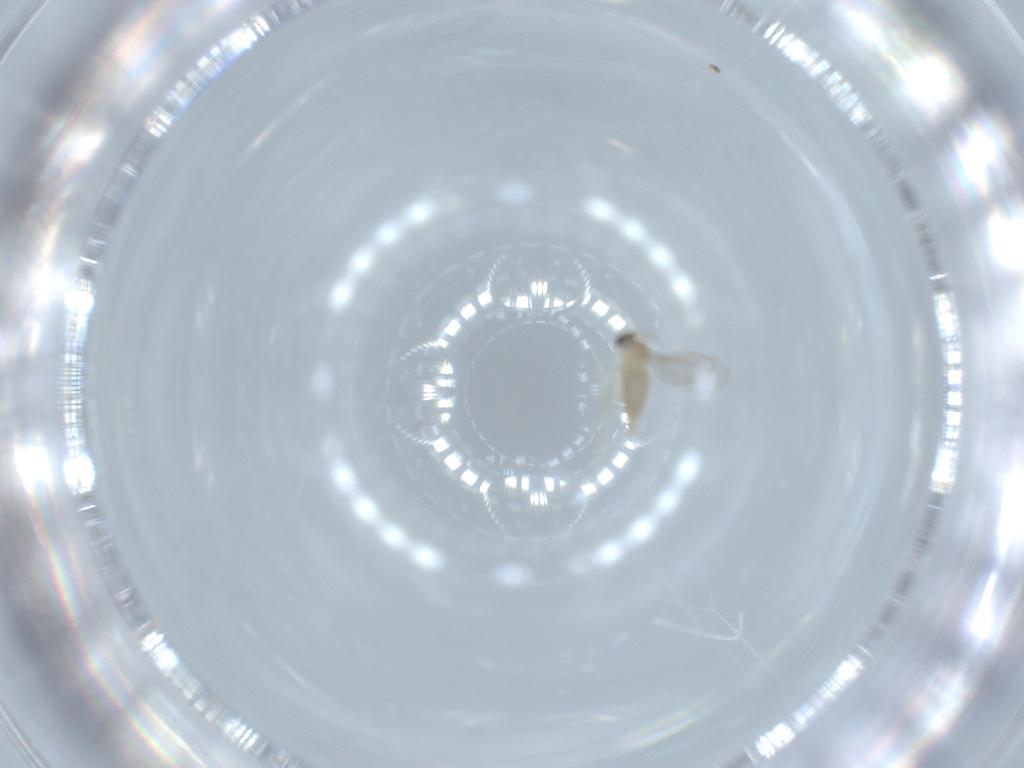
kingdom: Animalia
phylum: Arthropoda
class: Insecta
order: Diptera
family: Cecidomyiidae
